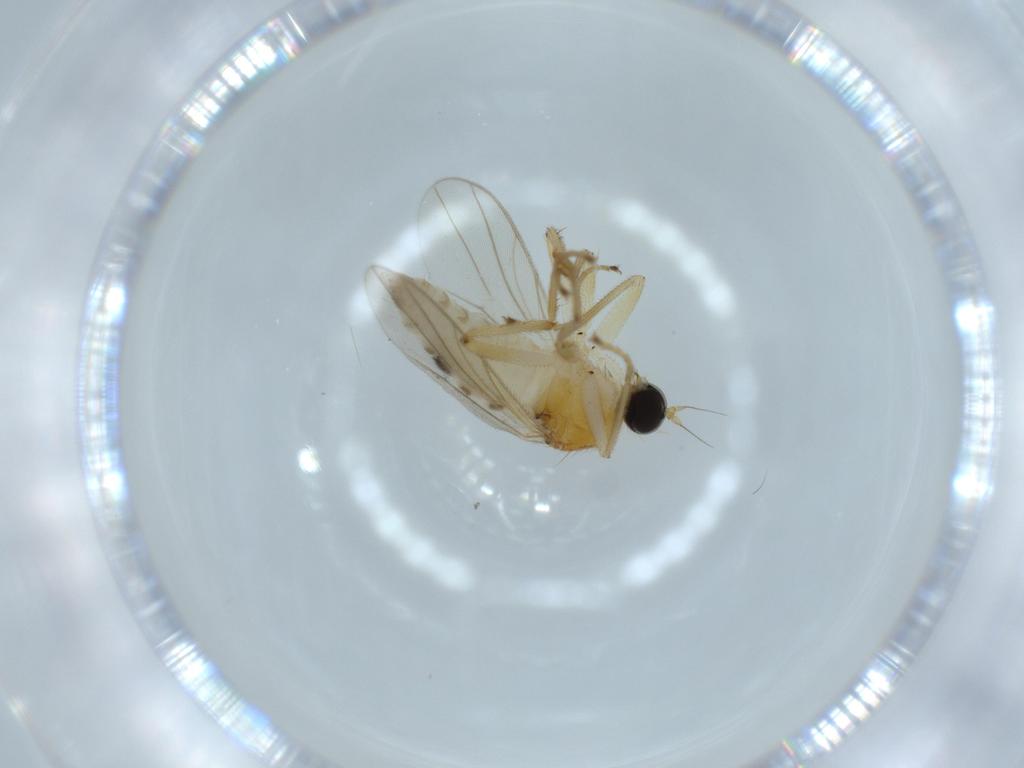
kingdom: Animalia
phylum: Arthropoda
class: Insecta
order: Diptera
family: Hybotidae
